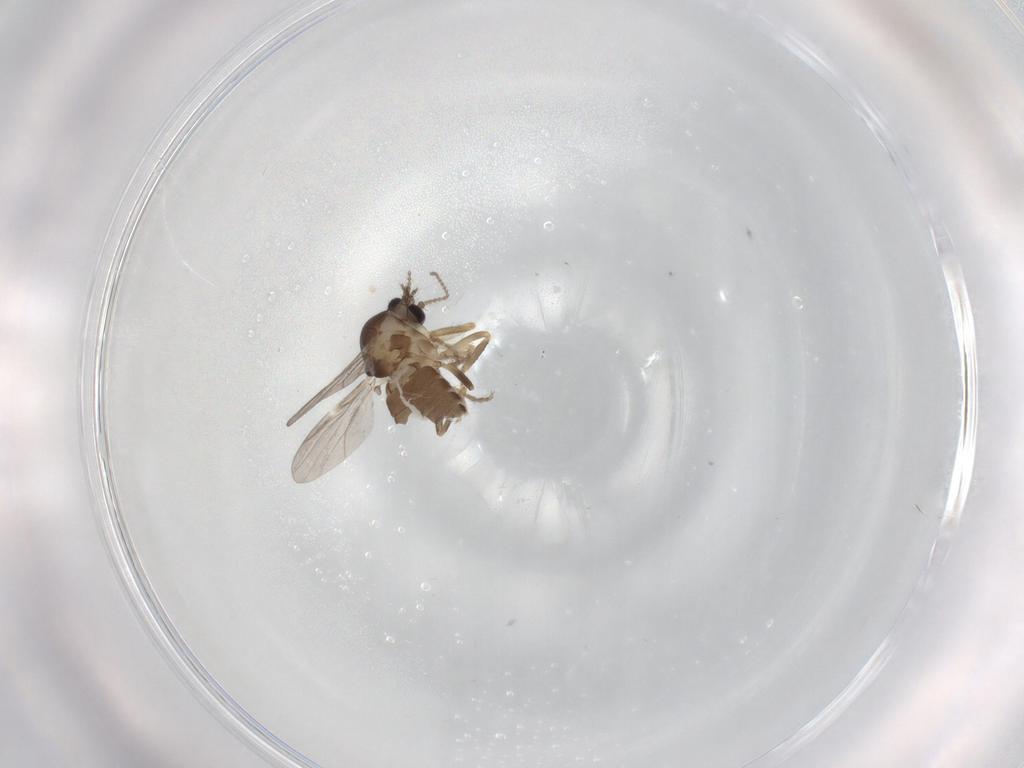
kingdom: Animalia
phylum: Arthropoda
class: Insecta
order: Diptera
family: Ceratopogonidae
